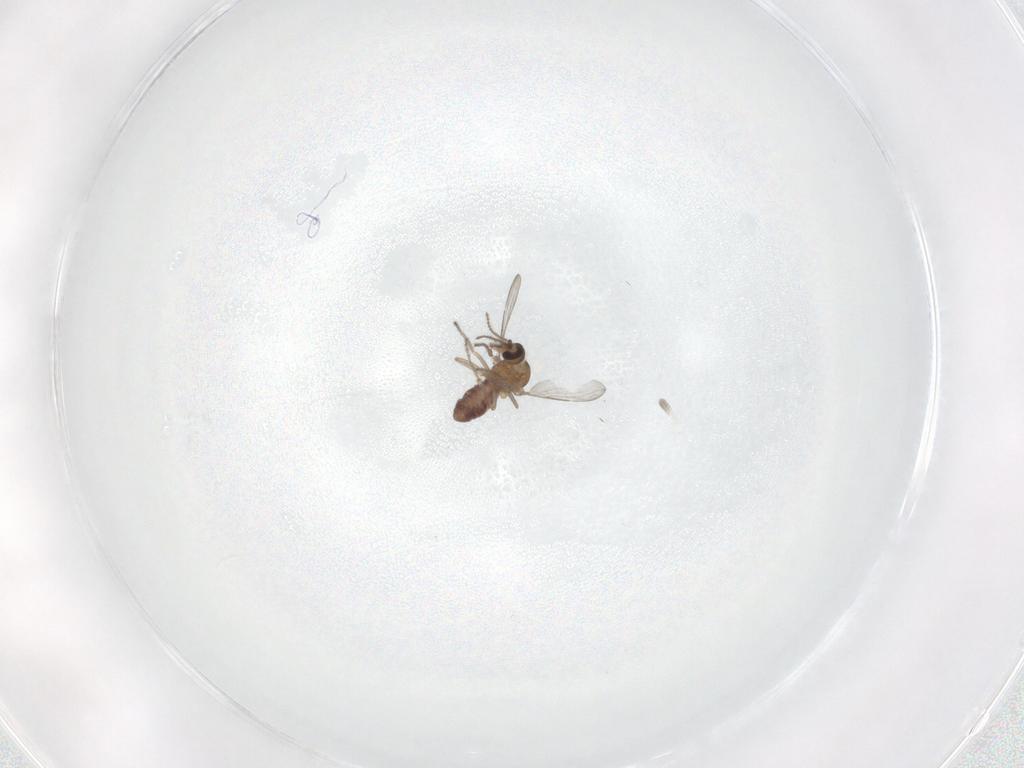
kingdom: Animalia
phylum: Arthropoda
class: Insecta
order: Diptera
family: Ceratopogonidae
